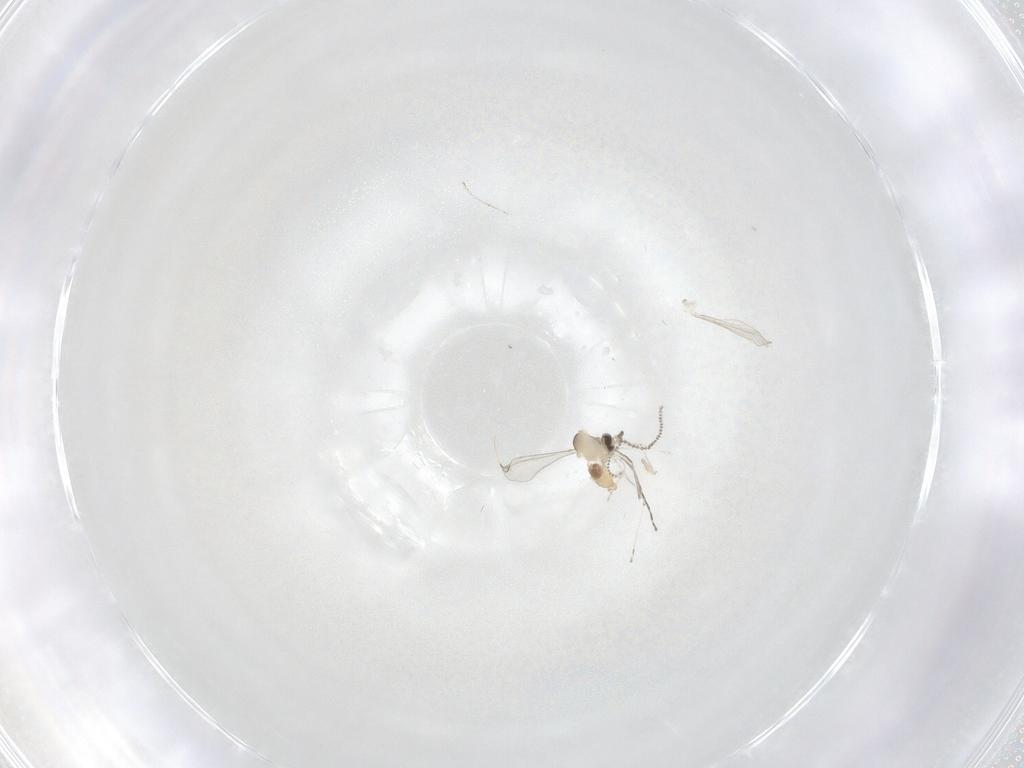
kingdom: Animalia
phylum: Arthropoda
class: Insecta
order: Diptera
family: Cecidomyiidae
